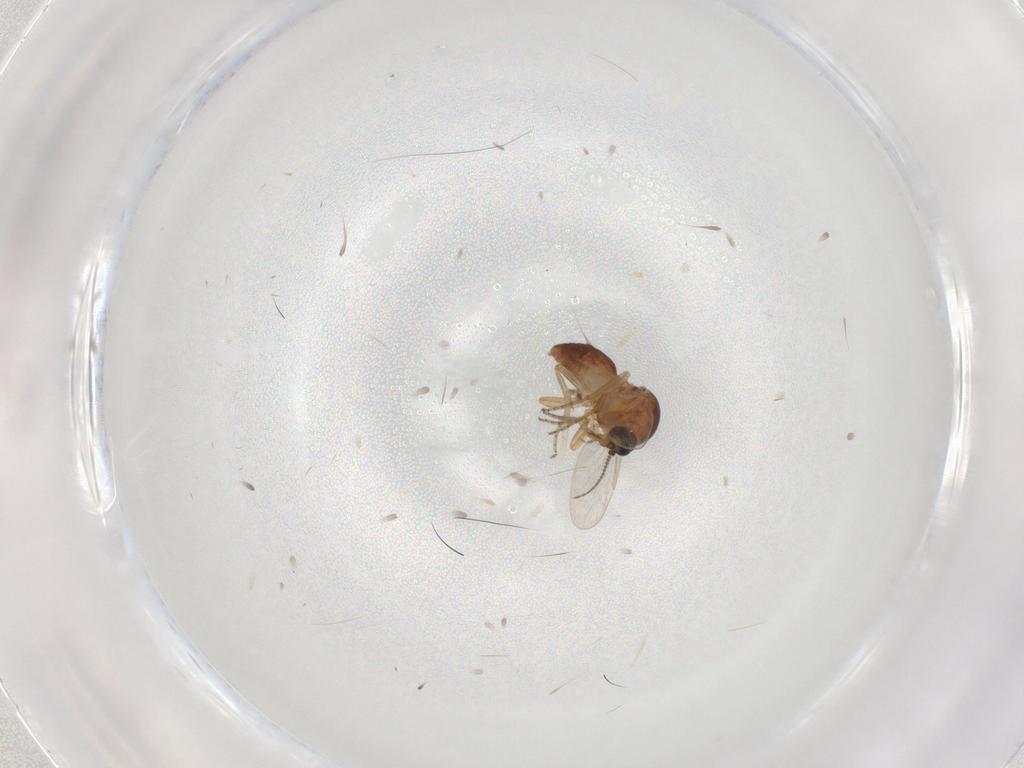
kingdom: Animalia
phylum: Arthropoda
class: Insecta
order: Diptera
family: Ceratopogonidae
